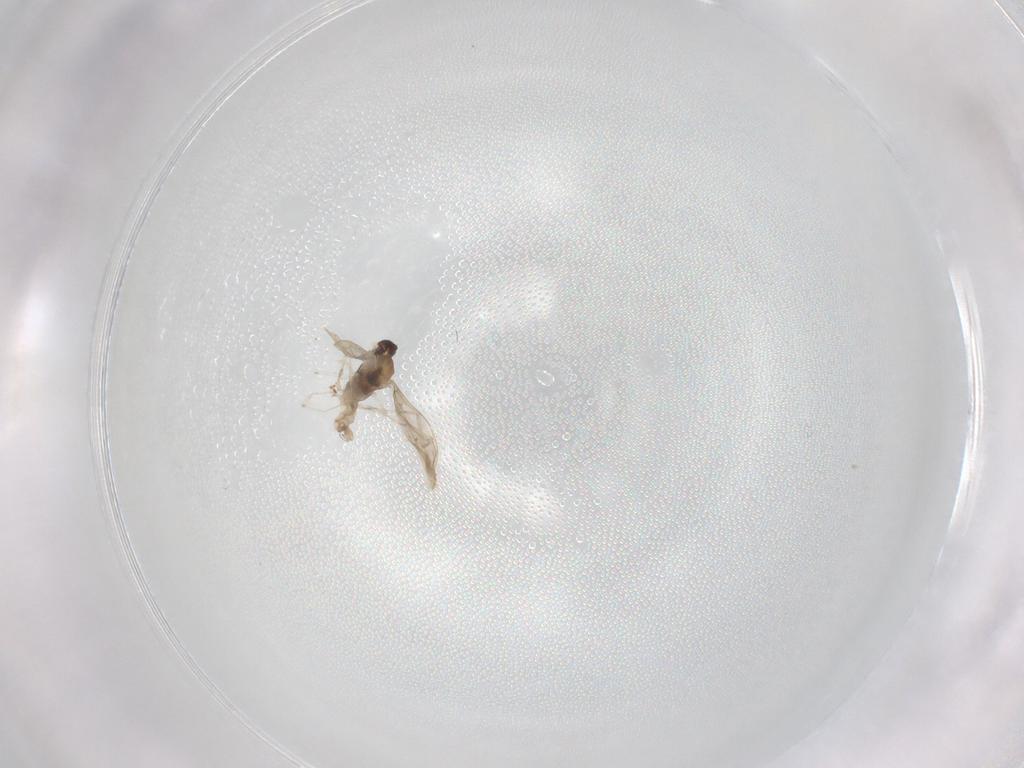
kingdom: Animalia
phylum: Arthropoda
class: Insecta
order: Diptera
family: Cecidomyiidae
